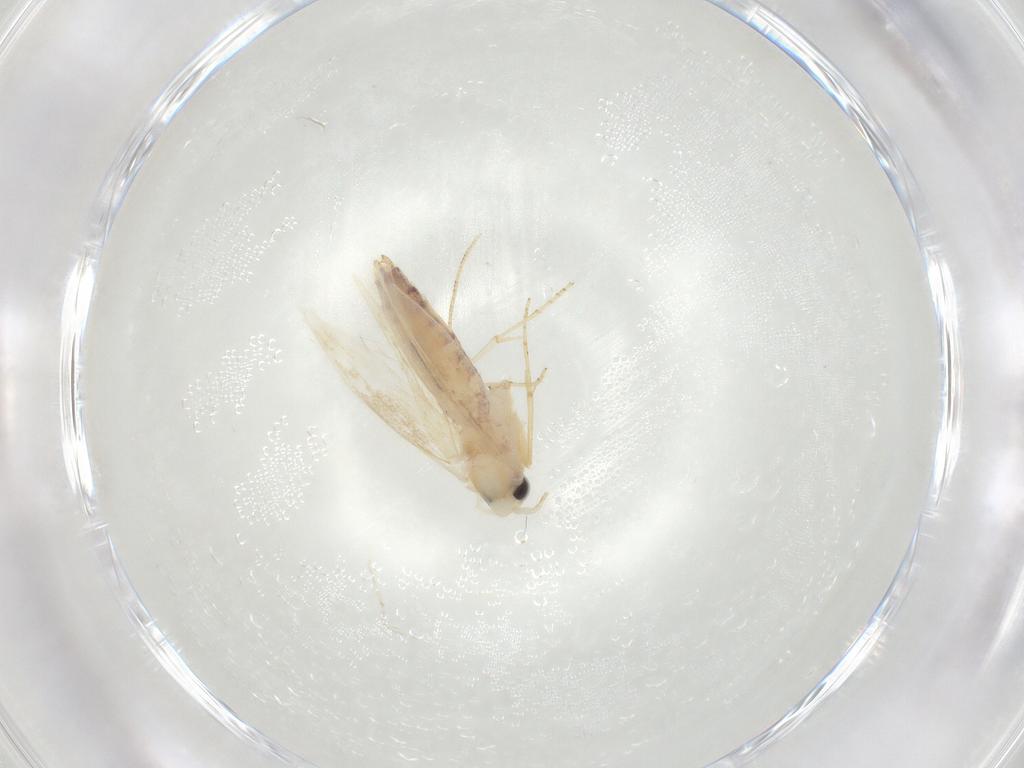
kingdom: Animalia
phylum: Arthropoda
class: Insecta
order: Lepidoptera
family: Bucculatricidae
